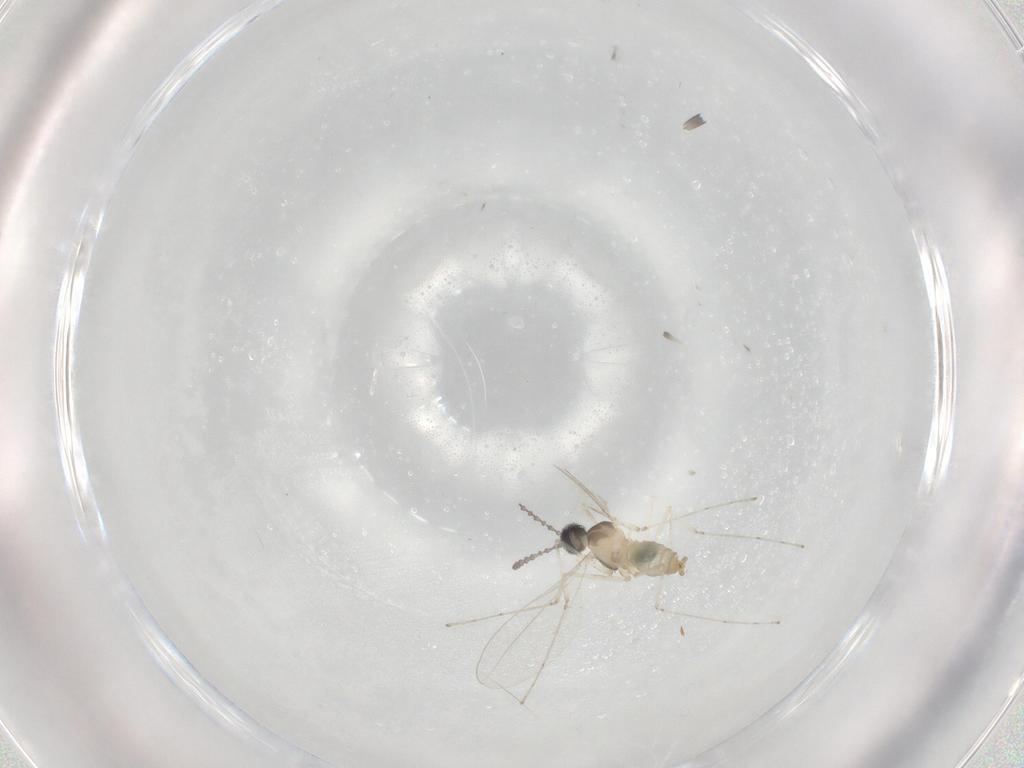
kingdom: Animalia
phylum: Arthropoda
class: Insecta
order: Diptera
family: Cecidomyiidae
